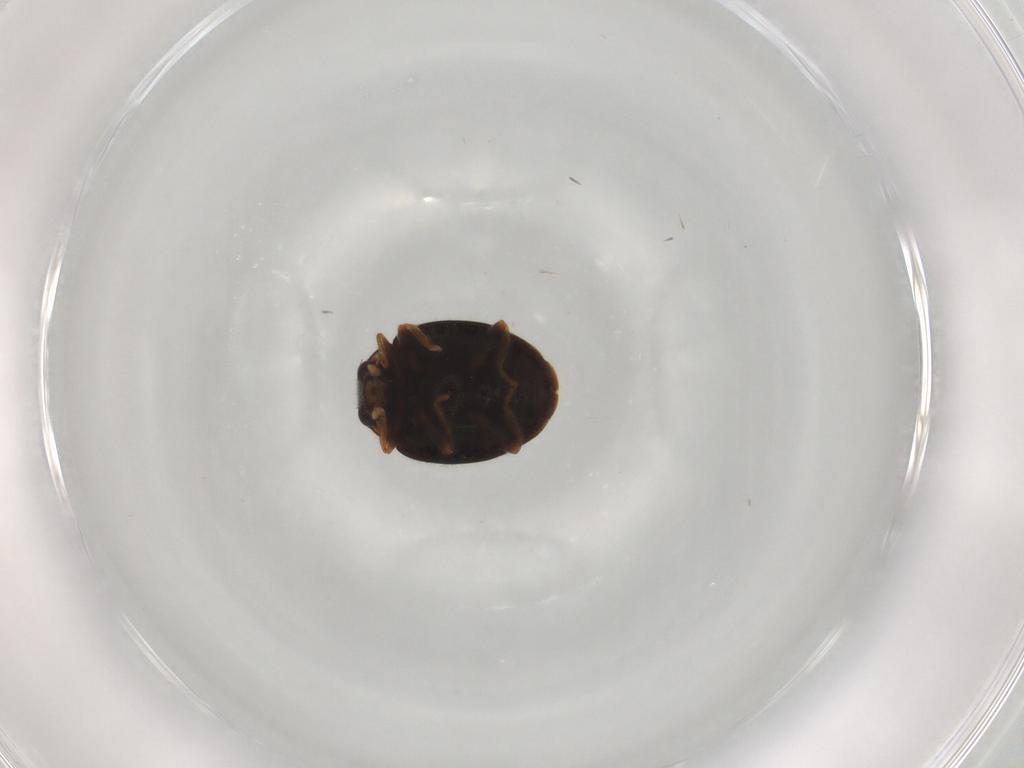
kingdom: Animalia
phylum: Arthropoda
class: Insecta
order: Coleoptera
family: Coccinellidae
